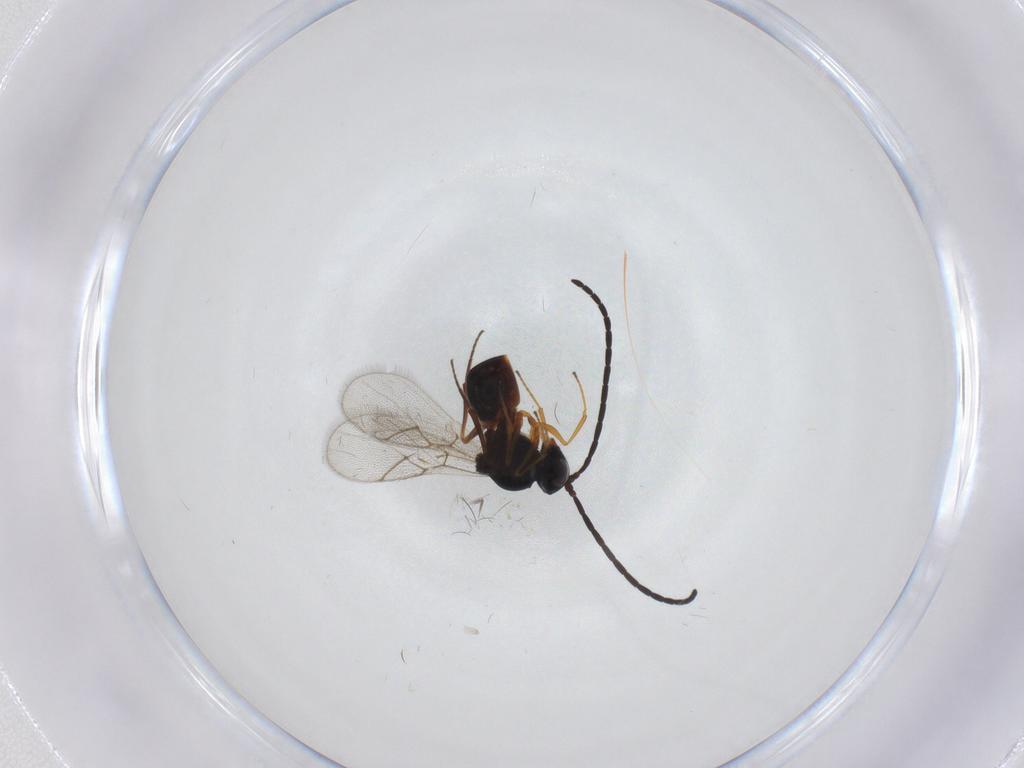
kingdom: Animalia
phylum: Arthropoda
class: Insecta
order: Hymenoptera
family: Figitidae
